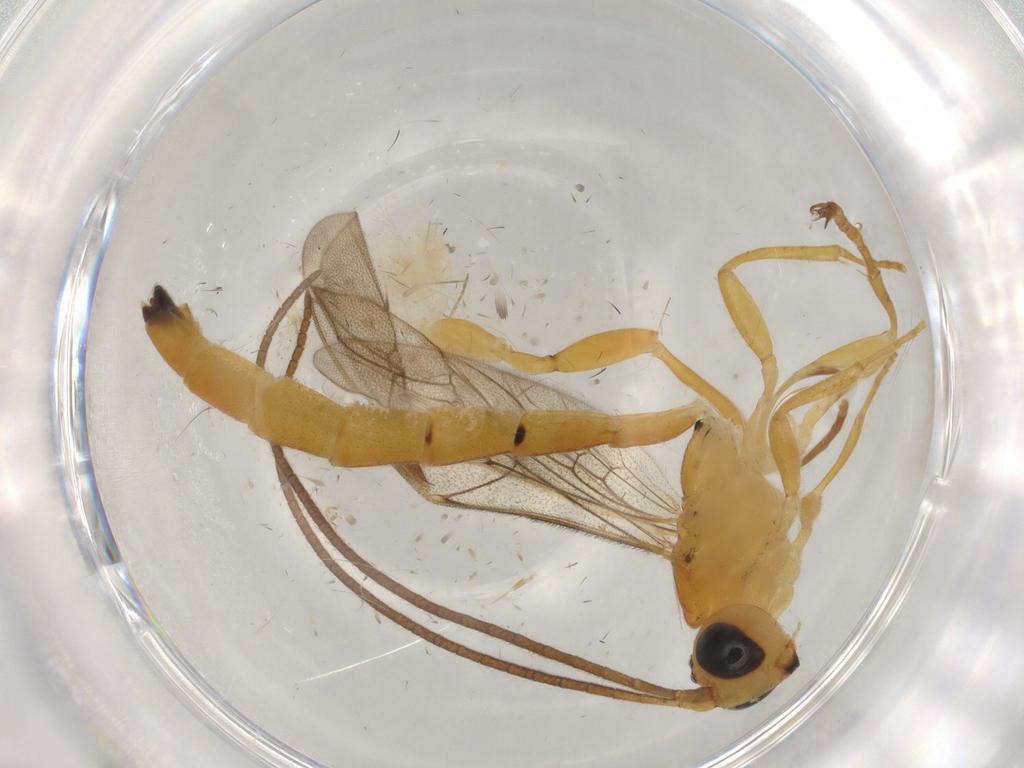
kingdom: Animalia
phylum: Arthropoda
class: Insecta
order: Hymenoptera
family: Ichneumonidae
